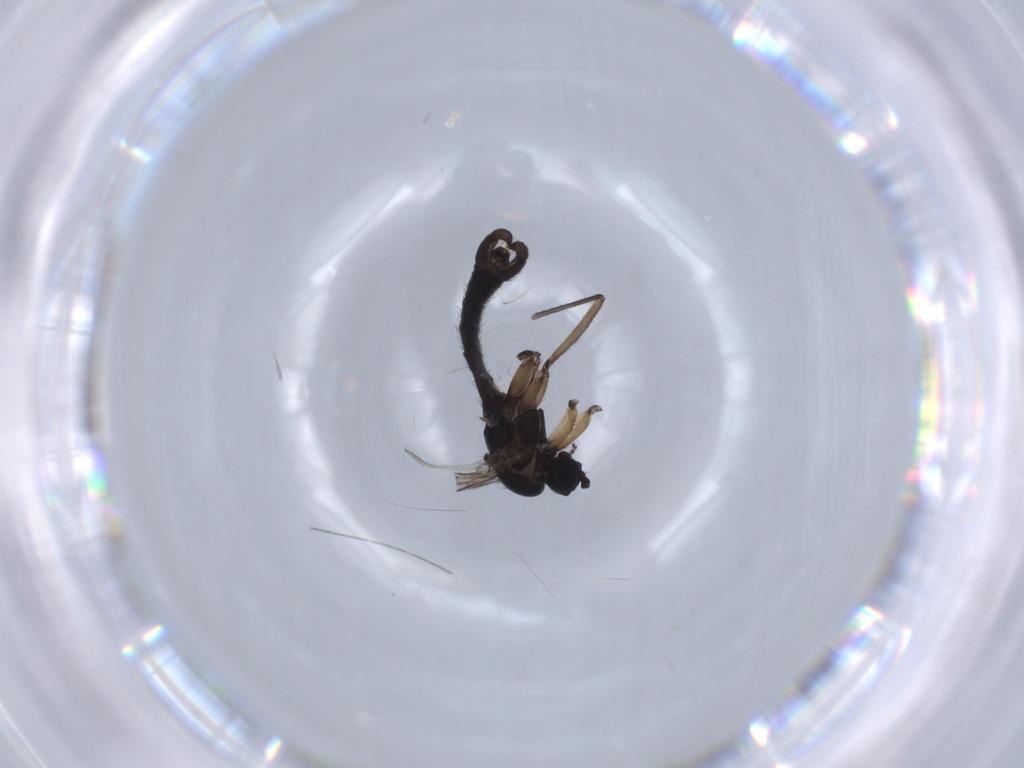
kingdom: Animalia
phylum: Arthropoda
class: Insecta
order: Diptera
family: Sciaridae
